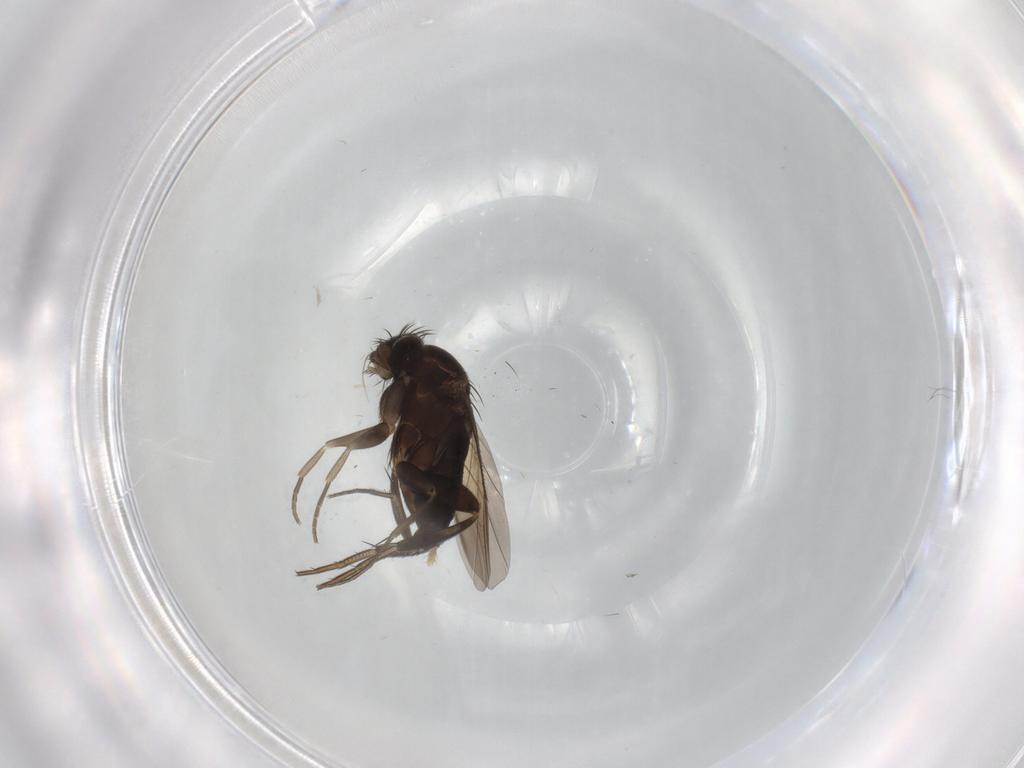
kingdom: Animalia
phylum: Arthropoda
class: Insecta
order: Diptera
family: Phoridae
